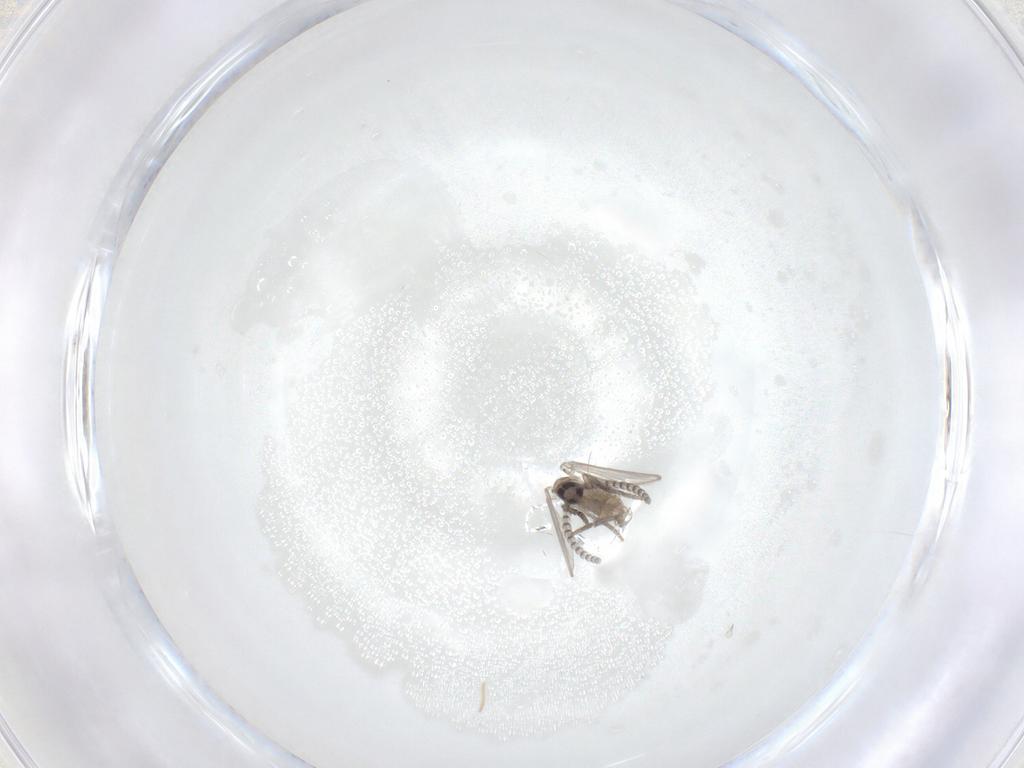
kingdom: Animalia
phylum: Arthropoda
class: Insecta
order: Diptera
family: Psychodidae
